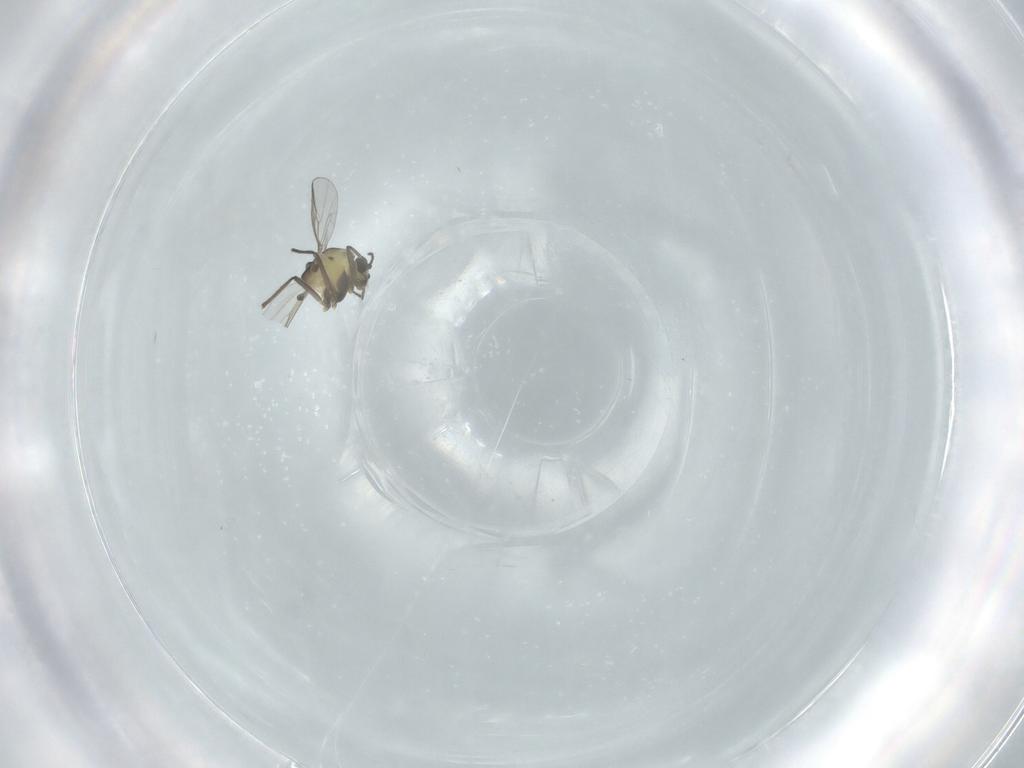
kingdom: Animalia
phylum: Arthropoda
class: Insecta
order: Diptera
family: Chironomidae
